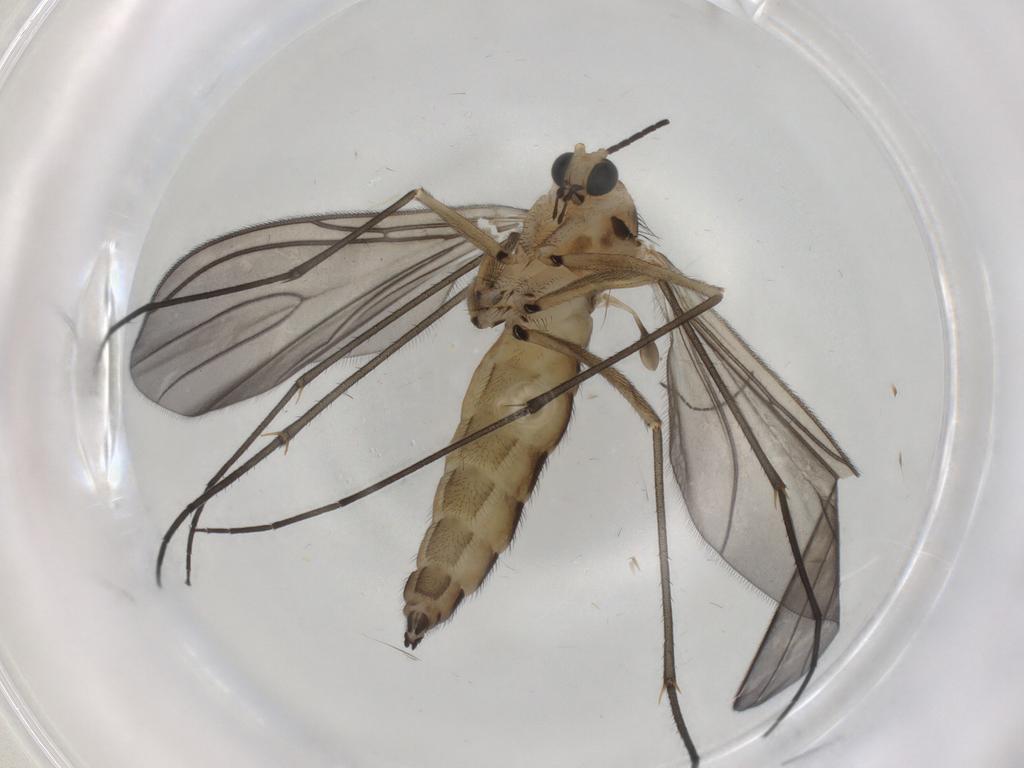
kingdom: Animalia
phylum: Arthropoda
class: Insecta
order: Diptera
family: Sciaridae
